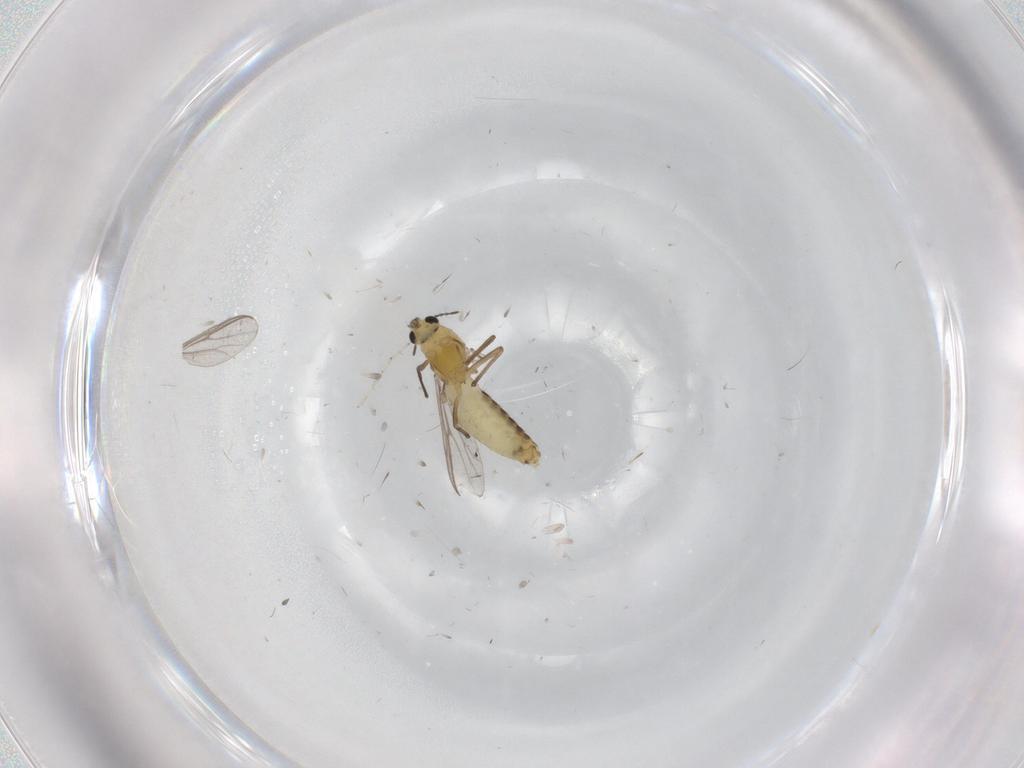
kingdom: Animalia
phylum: Arthropoda
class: Insecta
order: Diptera
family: Cecidomyiidae
